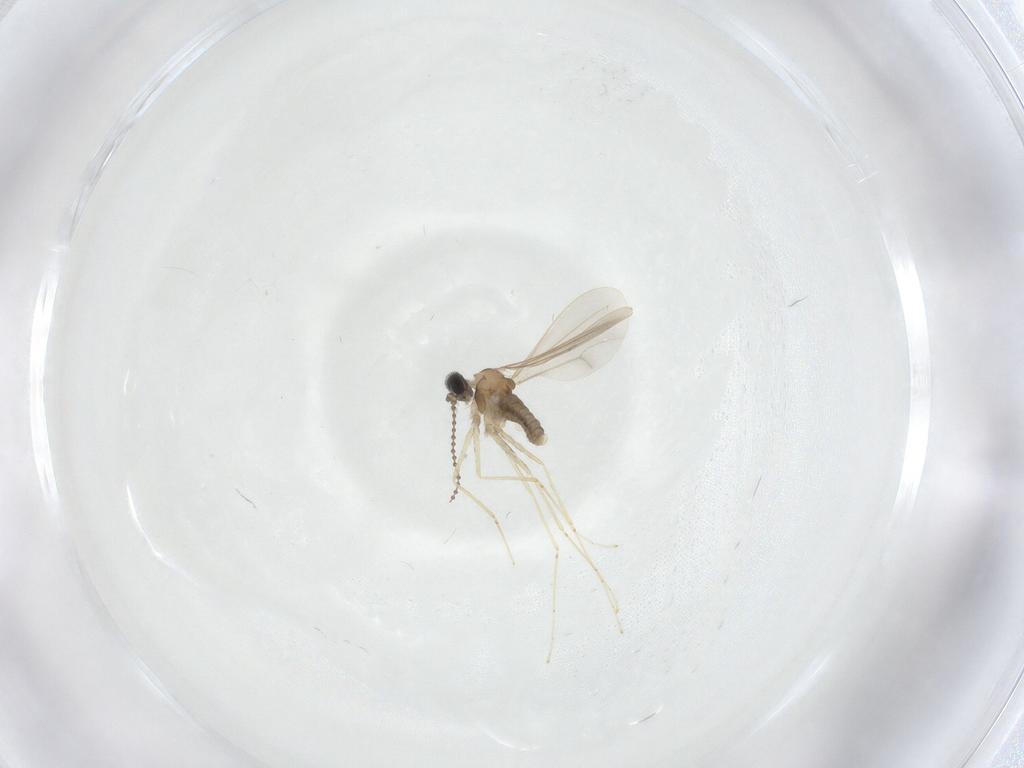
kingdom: Animalia
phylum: Arthropoda
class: Insecta
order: Diptera
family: Cecidomyiidae
